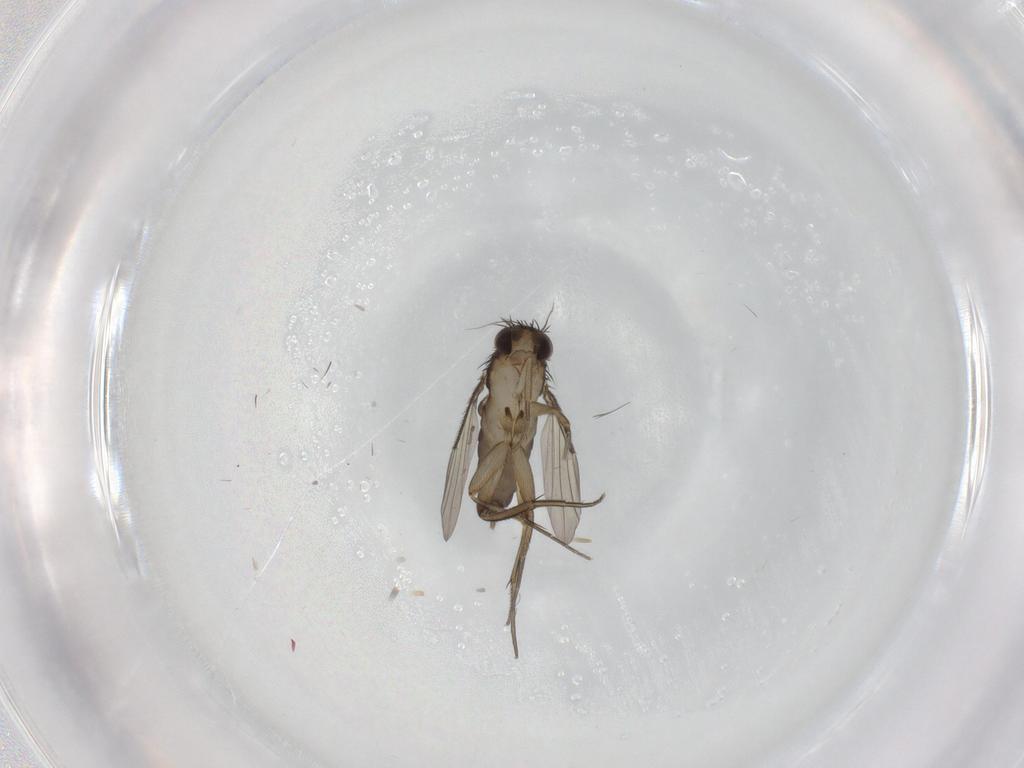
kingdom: Animalia
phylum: Arthropoda
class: Insecta
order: Diptera
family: Phoridae
